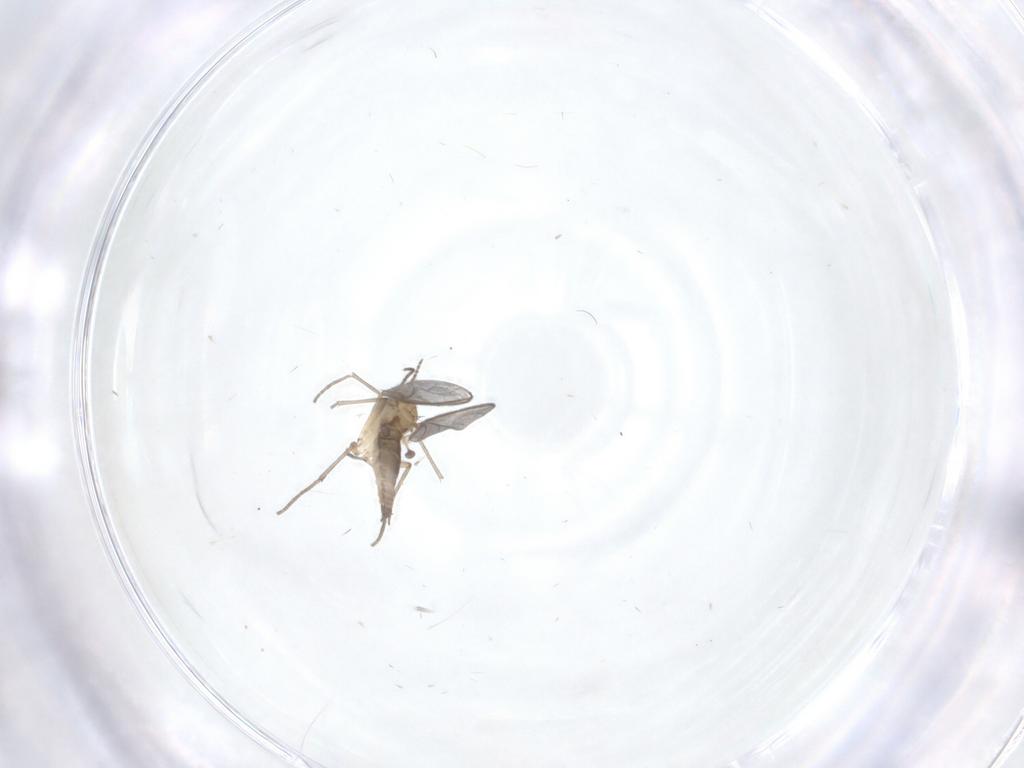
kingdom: Animalia
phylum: Arthropoda
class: Insecta
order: Diptera
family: Sciaridae
